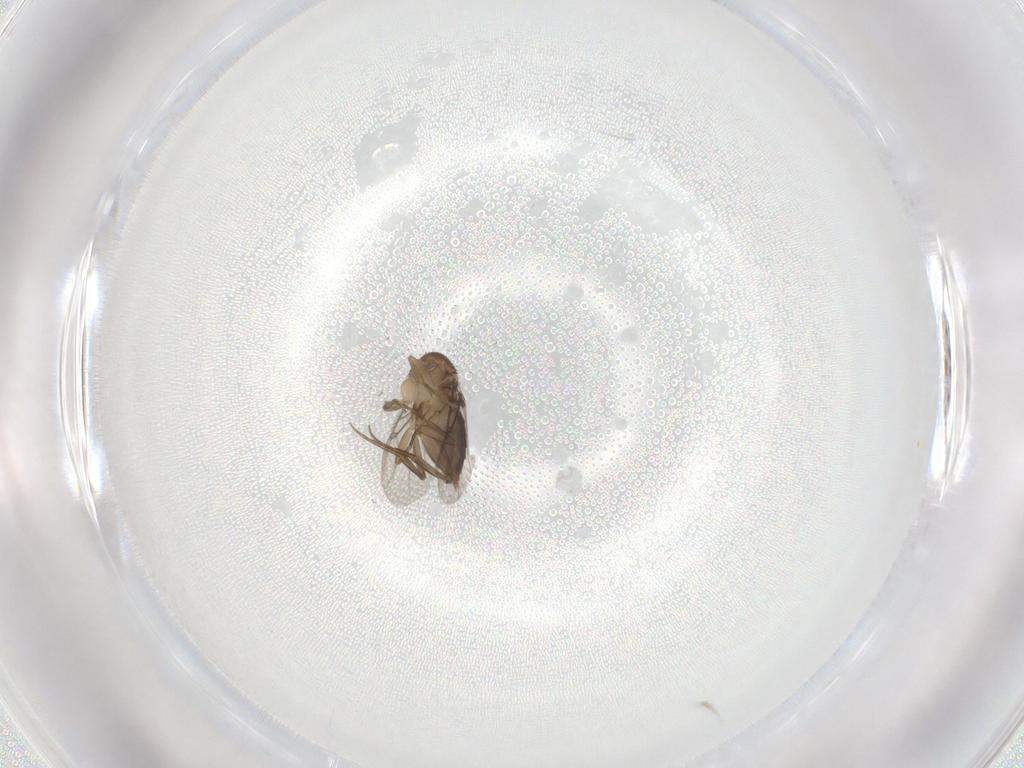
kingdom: Animalia
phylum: Arthropoda
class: Insecta
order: Diptera
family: Phoridae
